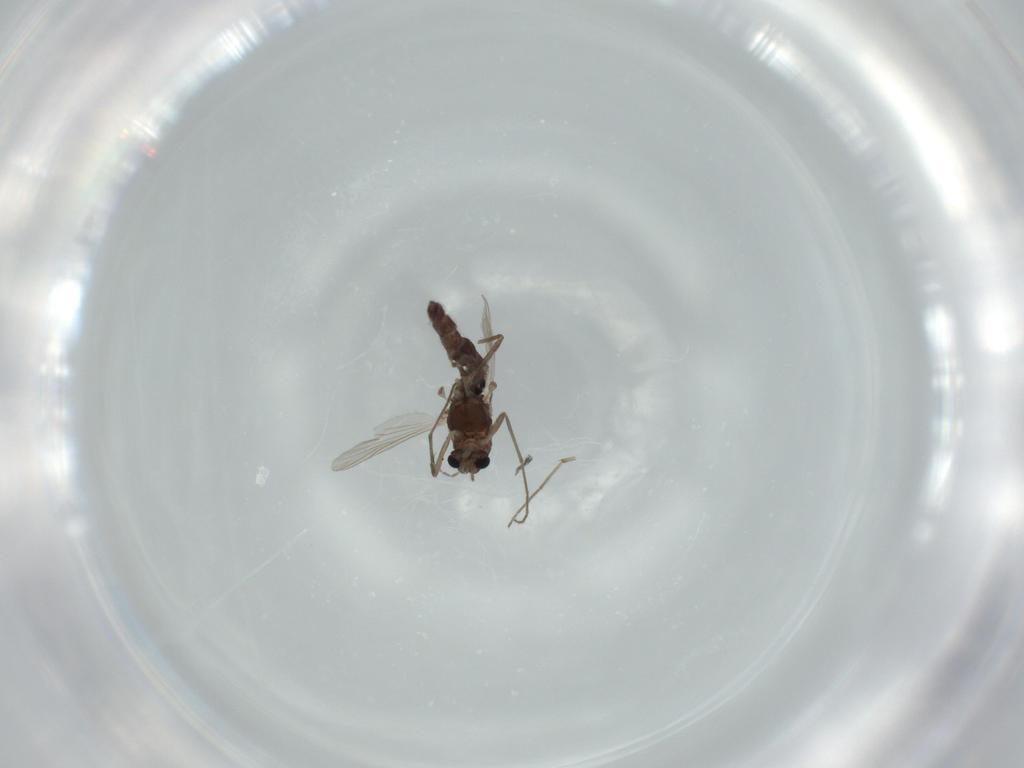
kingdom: Animalia
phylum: Arthropoda
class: Insecta
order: Diptera
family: Chironomidae
